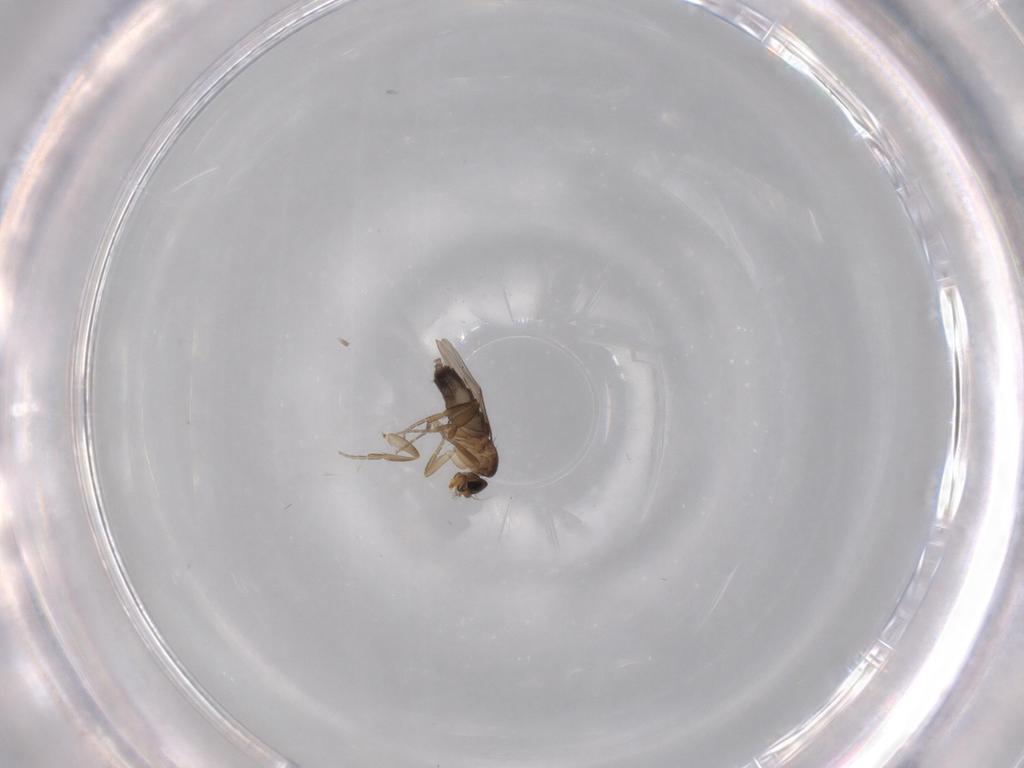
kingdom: Animalia
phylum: Arthropoda
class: Insecta
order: Diptera
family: Phoridae
